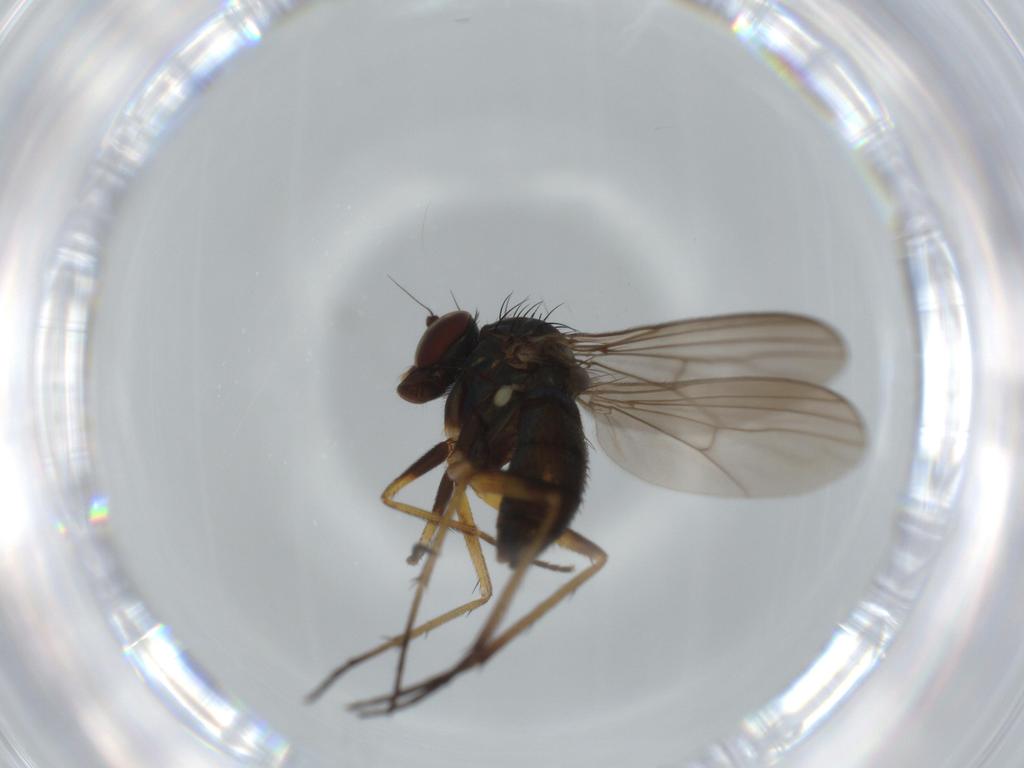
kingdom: Animalia
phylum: Arthropoda
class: Insecta
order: Diptera
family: Dolichopodidae
